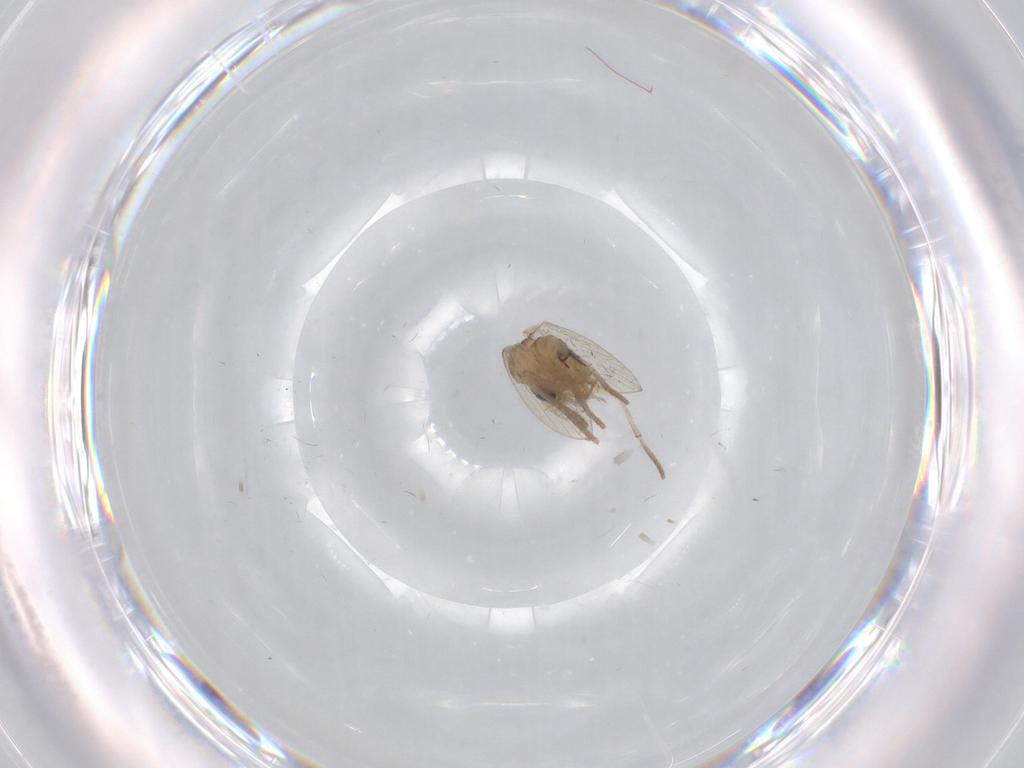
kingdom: Animalia
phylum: Arthropoda
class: Insecta
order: Diptera
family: Psychodidae
